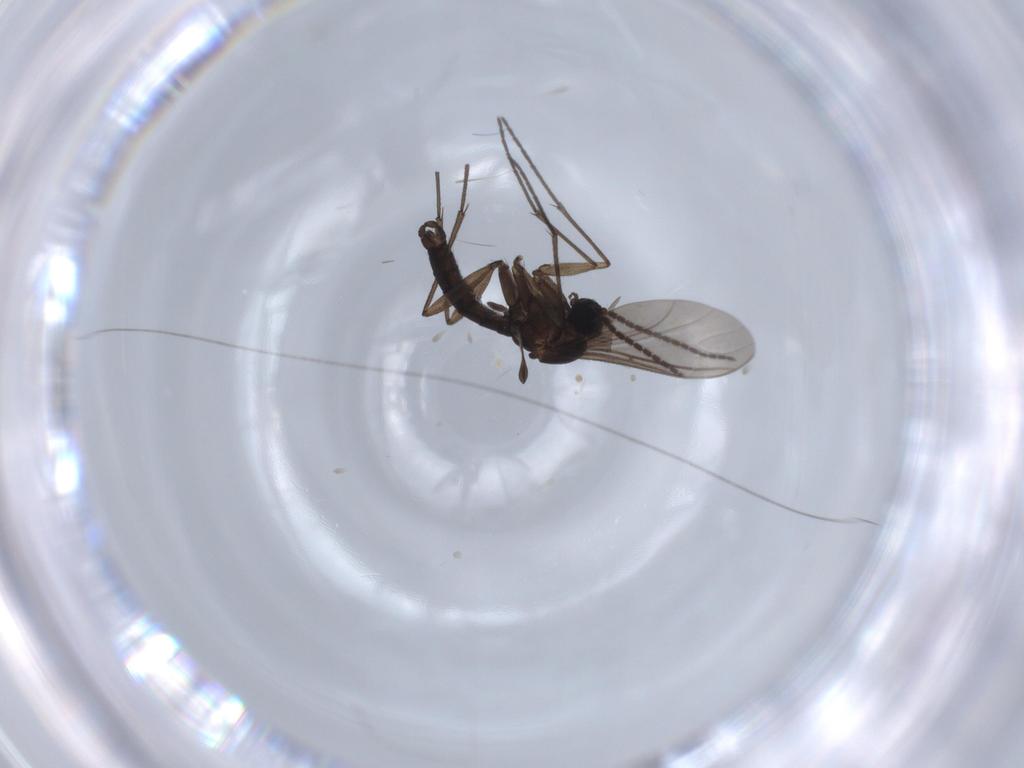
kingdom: Animalia
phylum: Arthropoda
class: Insecta
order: Diptera
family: Sciaridae
